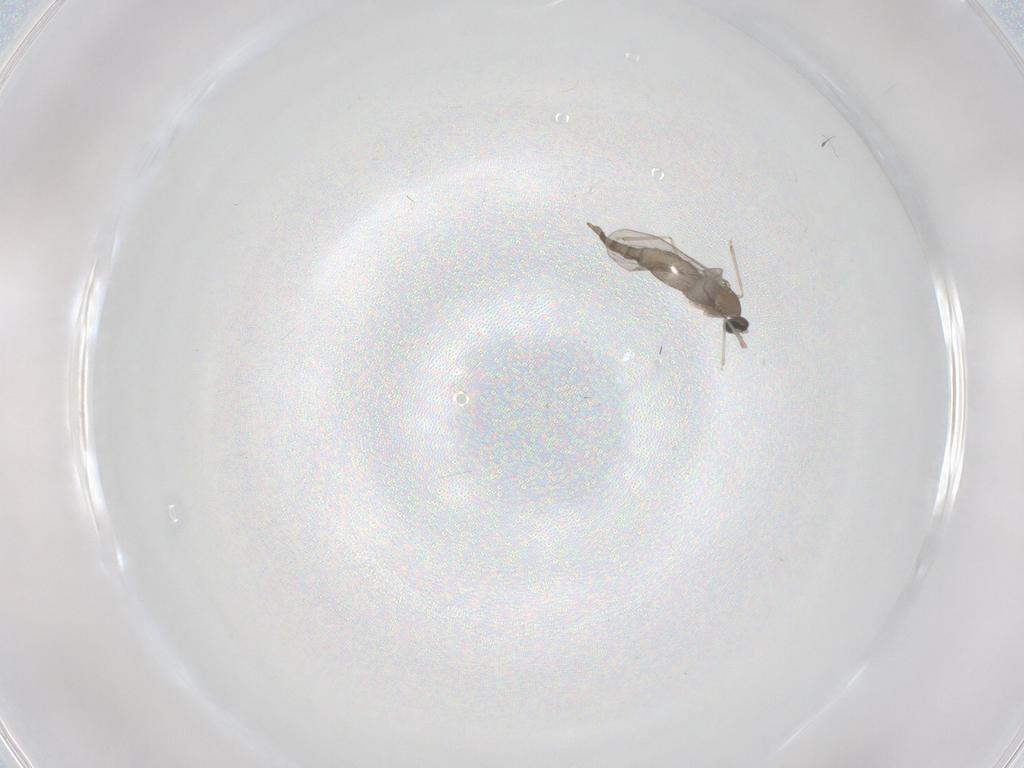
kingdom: Animalia
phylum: Arthropoda
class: Insecta
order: Diptera
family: Cecidomyiidae
